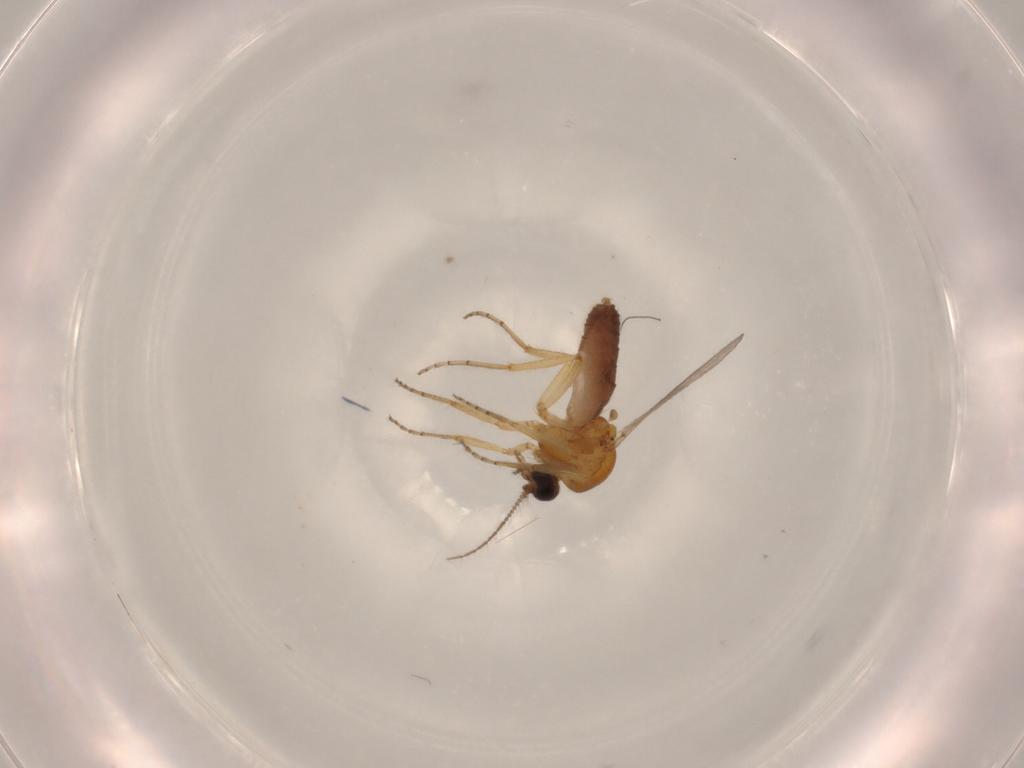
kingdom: Animalia
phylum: Arthropoda
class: Insecta
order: Diptera
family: Ceratopogonidae
